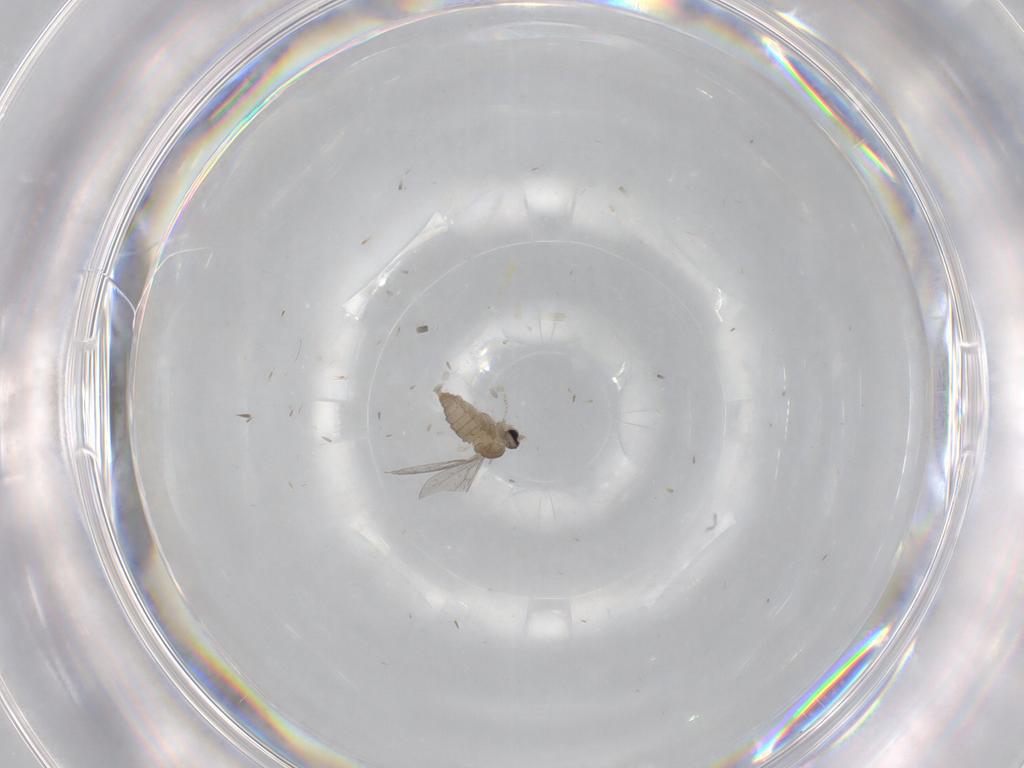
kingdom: Animalia
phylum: Arthropoda
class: Insecta
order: Diptera
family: Cecidomyiidae
